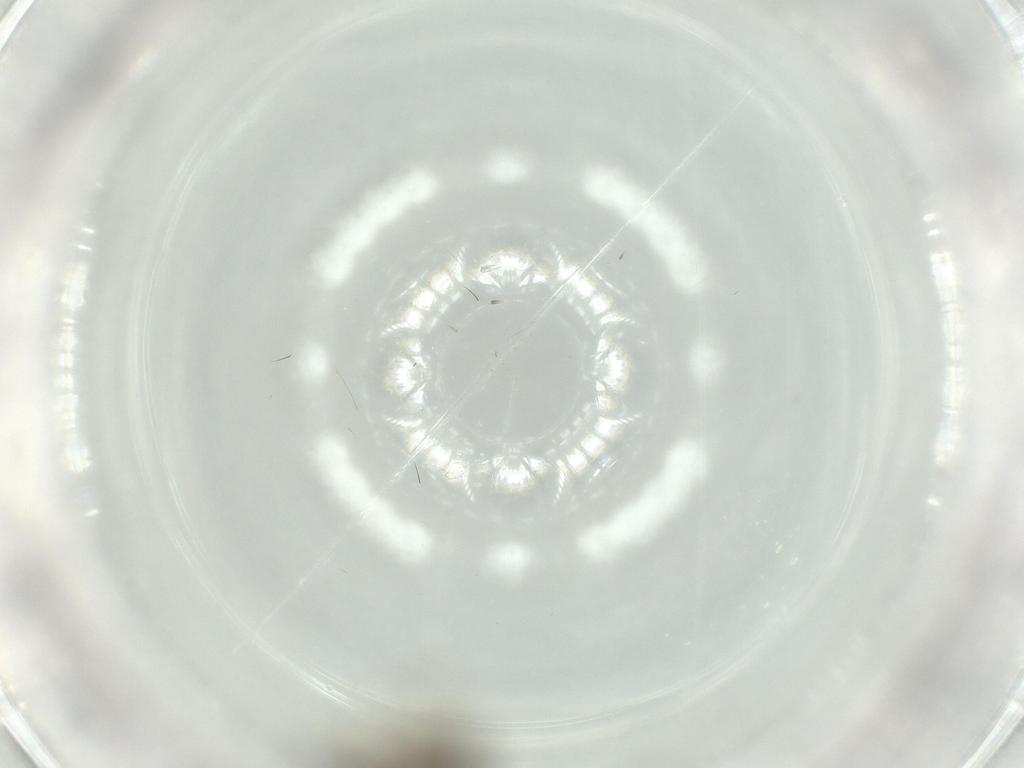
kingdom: Animalia
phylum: Arthropoda
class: Insecta
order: Diptera
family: Sciaridae
